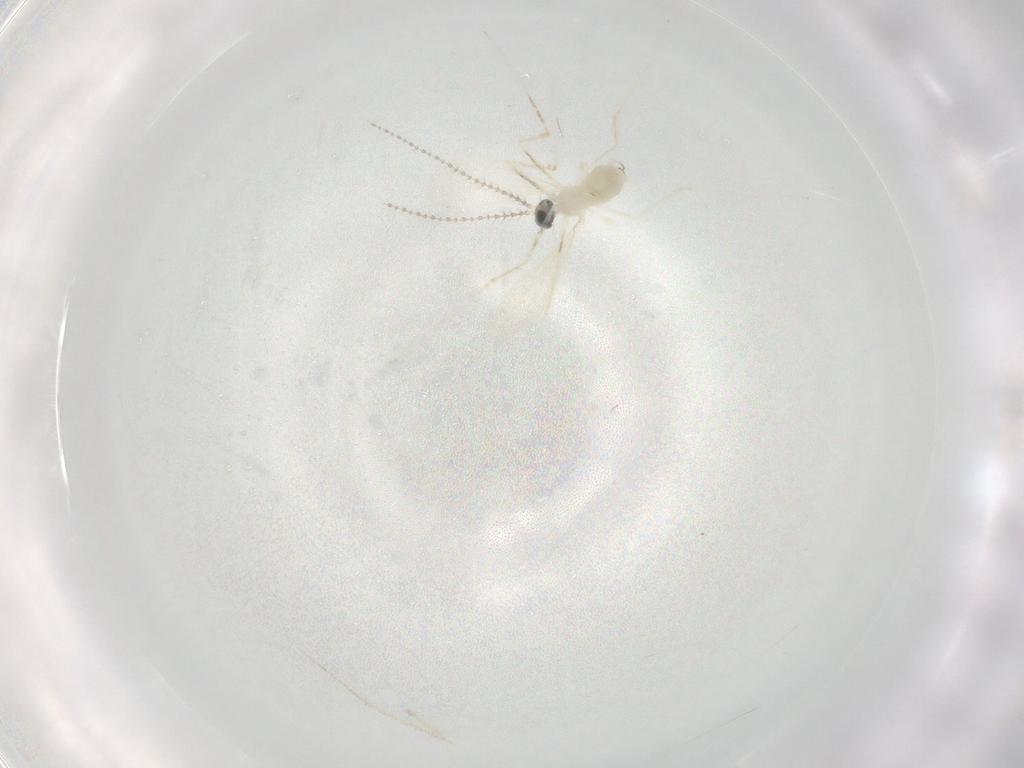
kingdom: Animalia
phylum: Arthropoda
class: Insecta
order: Diptera
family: Cecidomyiidae
